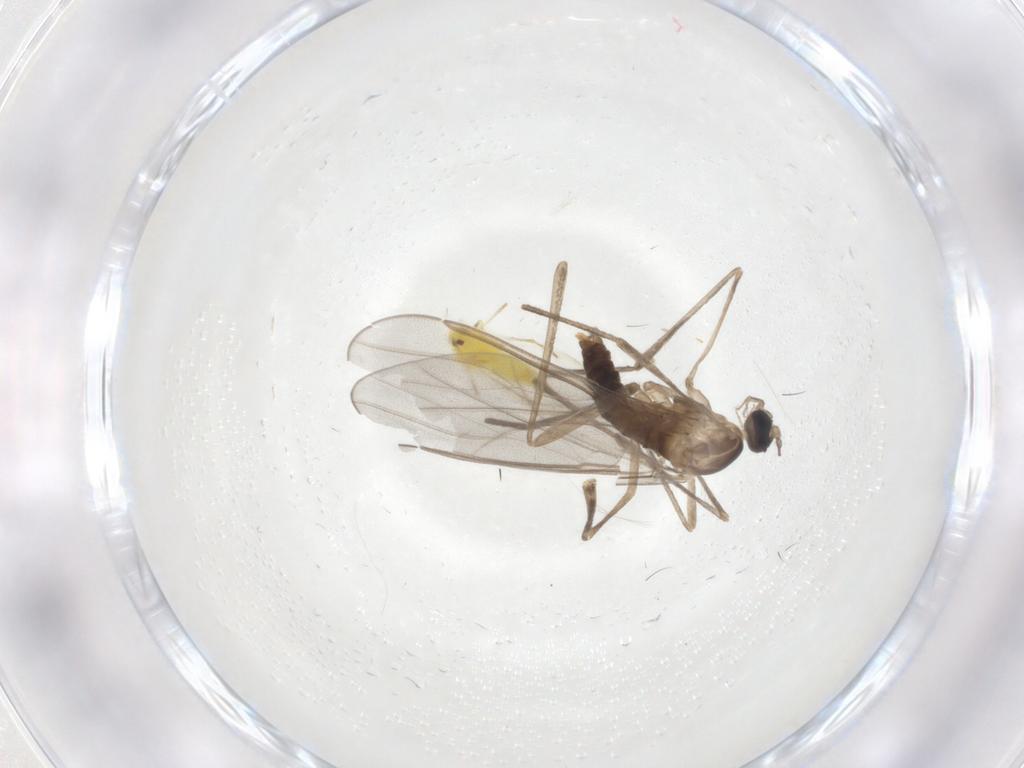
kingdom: Animalia
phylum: Arthropoda
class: Insecta
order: Diptera
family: Cecidomyiidae
